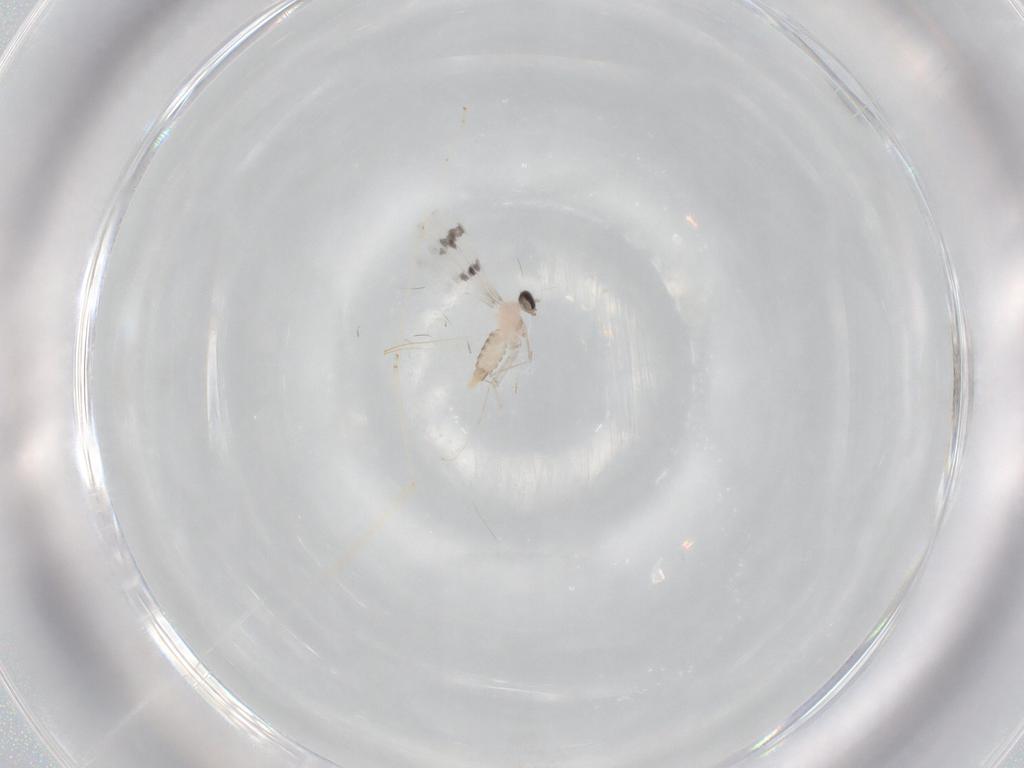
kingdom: Animalia
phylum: Arthropoda
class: Insecta
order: Diptera
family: Cecidomyiidae
